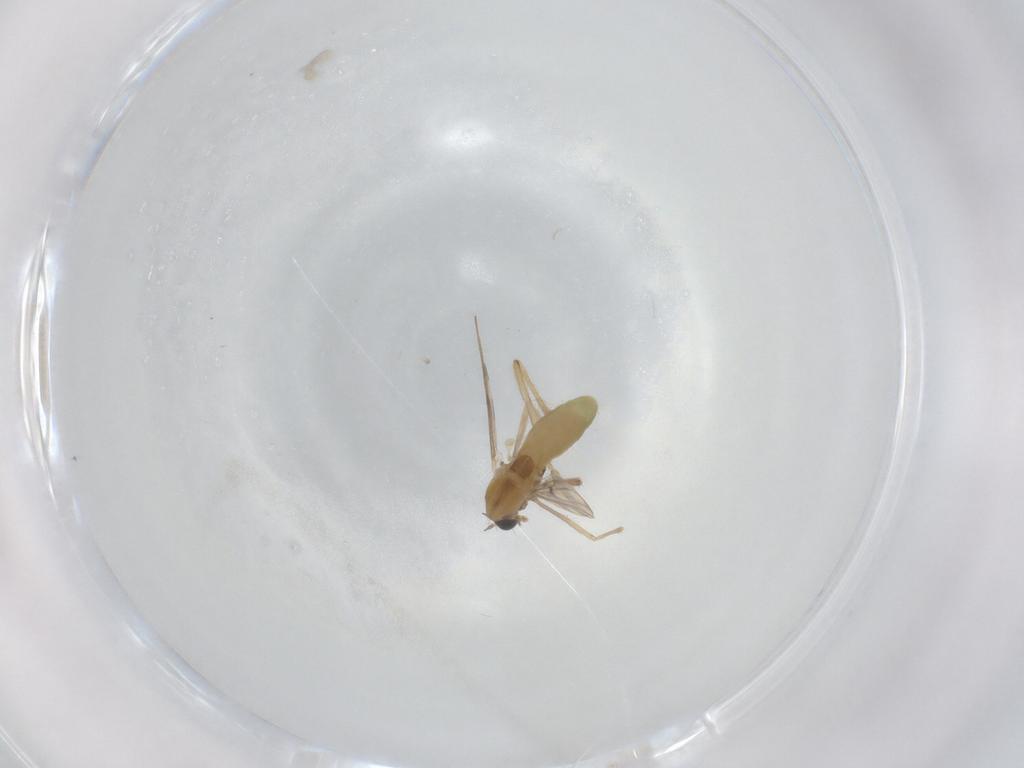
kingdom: Animalia
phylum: Arthropoda
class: Insecta
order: Diptera
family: Chironomidae
